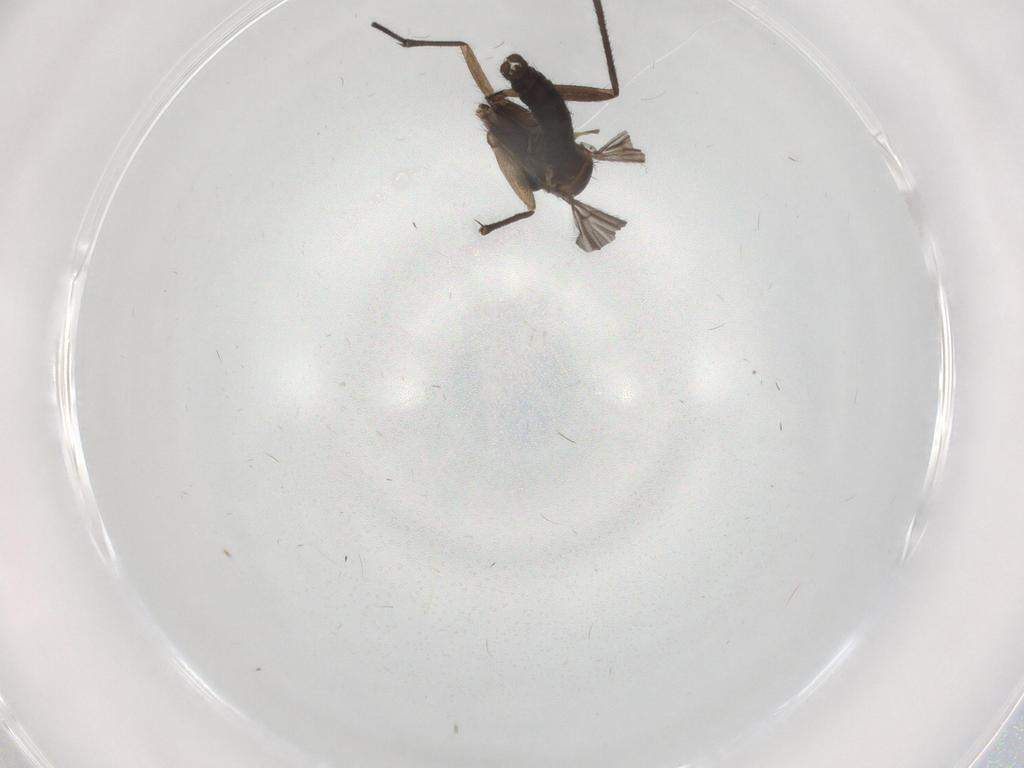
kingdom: Animalia
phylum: Arthropoda
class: Insecta
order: Diptera
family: Sciaridae
